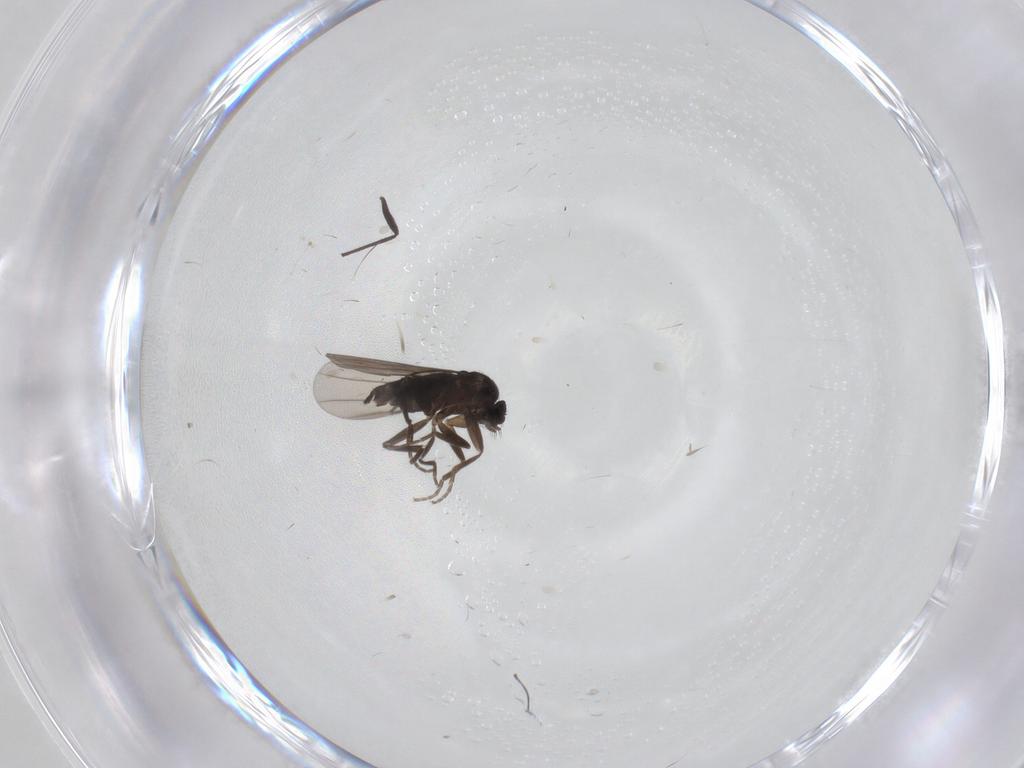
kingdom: Animalia
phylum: Arthropoda
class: Insecta
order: Diptera
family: Chironomidae
